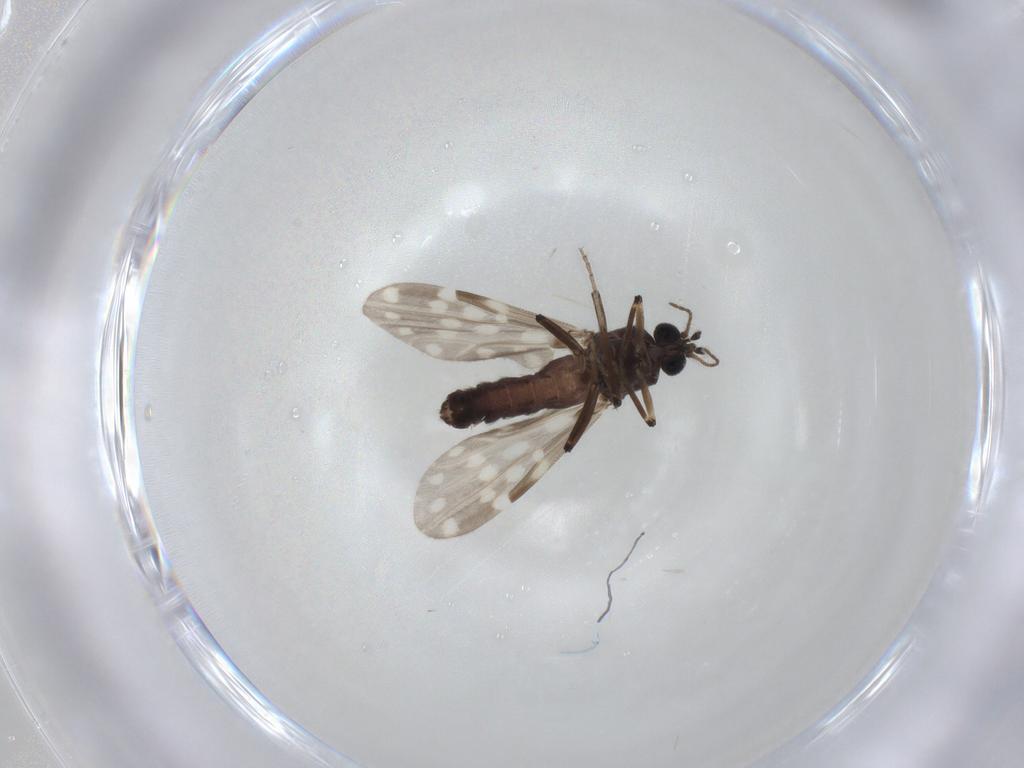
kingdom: Animalia
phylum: Arthropoda
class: Insecta
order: Diptera
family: Ceratopogonidae
